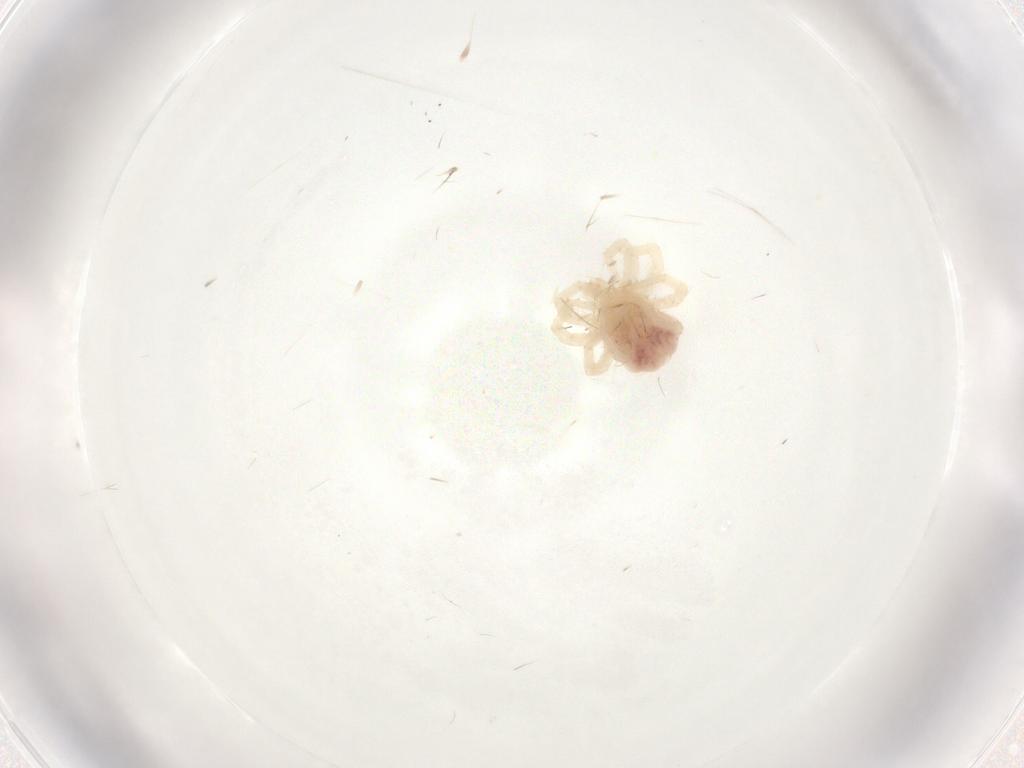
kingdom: Animalia
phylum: Arthropoda
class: Arachnida
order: Trombidiformes
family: Anystidae
